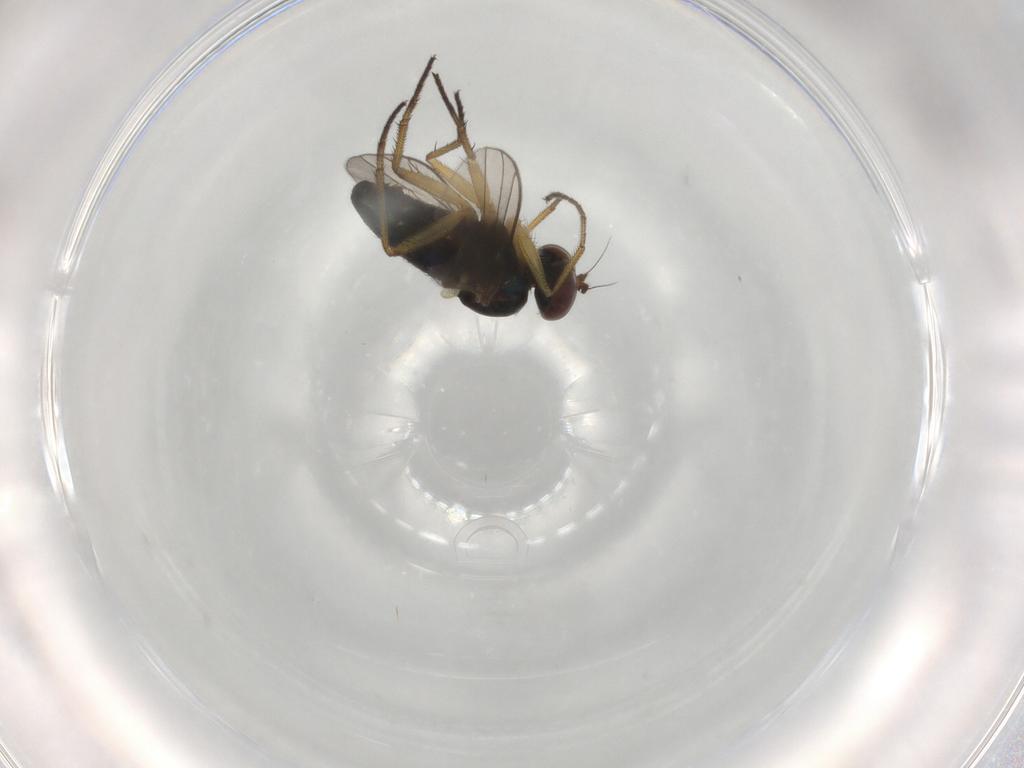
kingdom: Animalia
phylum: Arthropoda
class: Insecta
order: Diptera
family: Dolichopodidae
